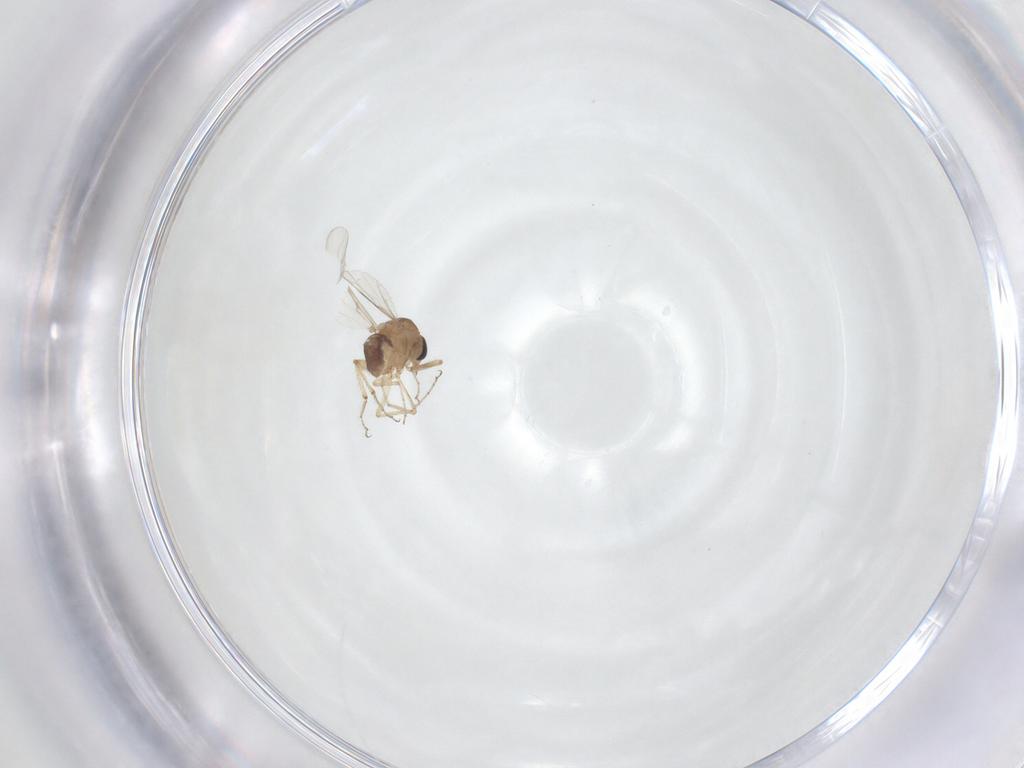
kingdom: Animalia
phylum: Arthropoda
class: Insecta
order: Diptera
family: Ceratopogonidae
